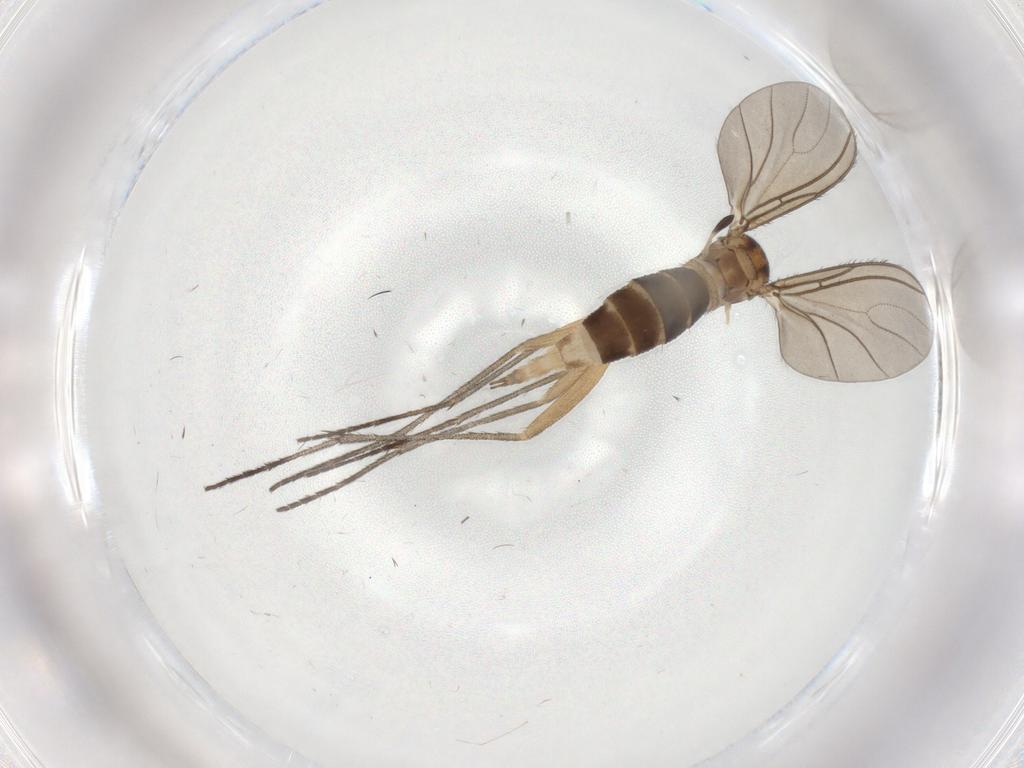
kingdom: Animalia
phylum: Arthropoda
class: Insecta
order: Diptera
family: Sciaridae
